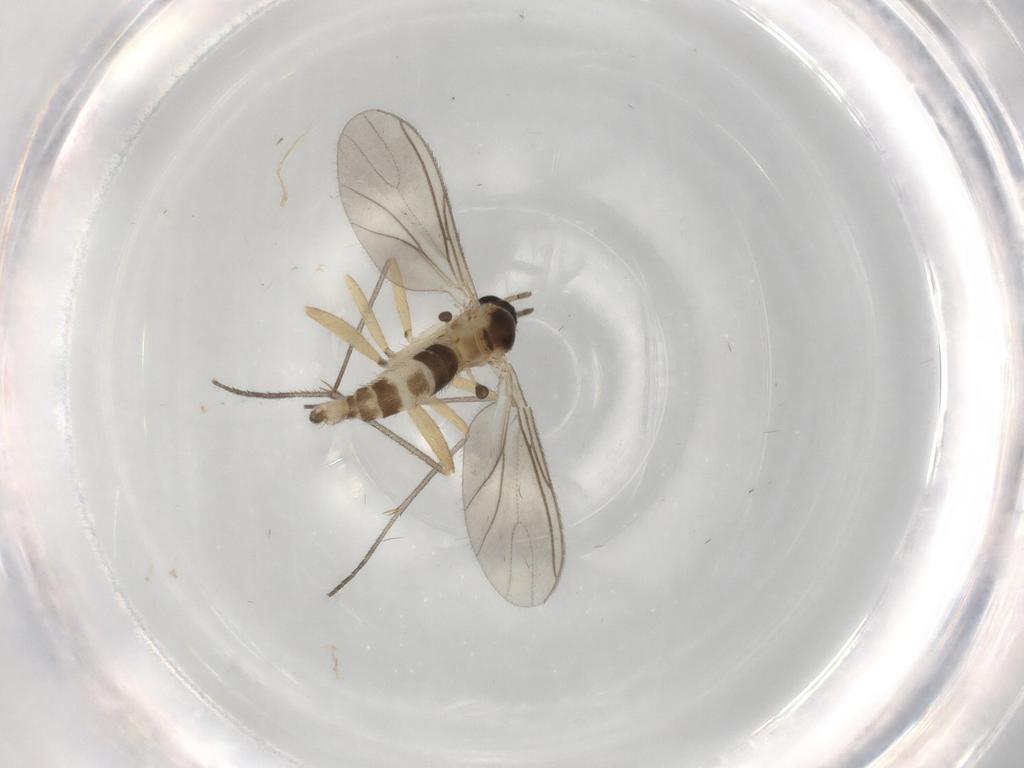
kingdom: Animalia
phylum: Arthropoda
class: Insecta
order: Diptera
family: Sciaridae
